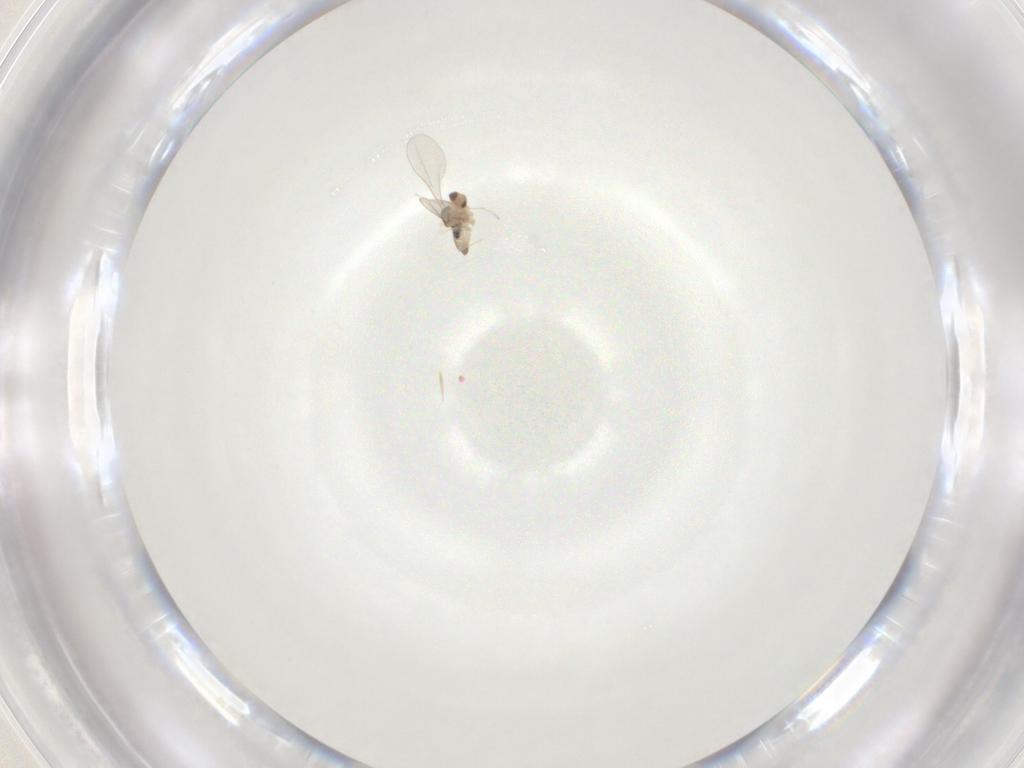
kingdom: Animalia
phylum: Arthropoda
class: Insecta
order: Diptera
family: Cecidomyiidae
